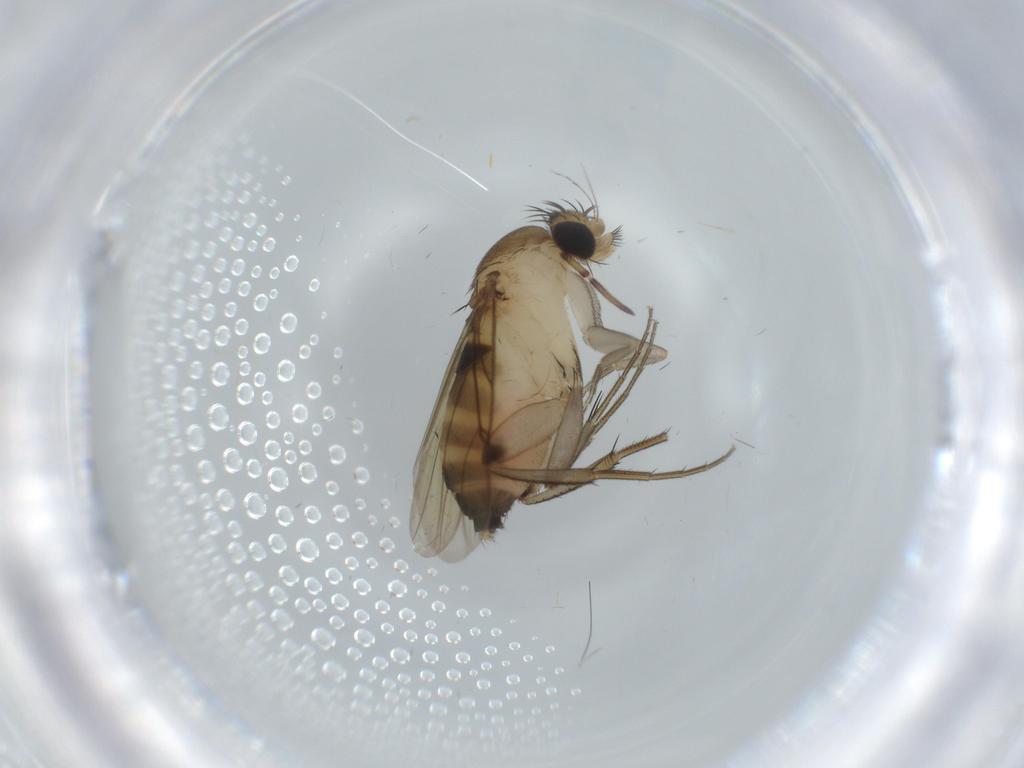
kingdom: Animalia
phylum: Arthropoda
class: Insecta
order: Diptera
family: Phoridae
